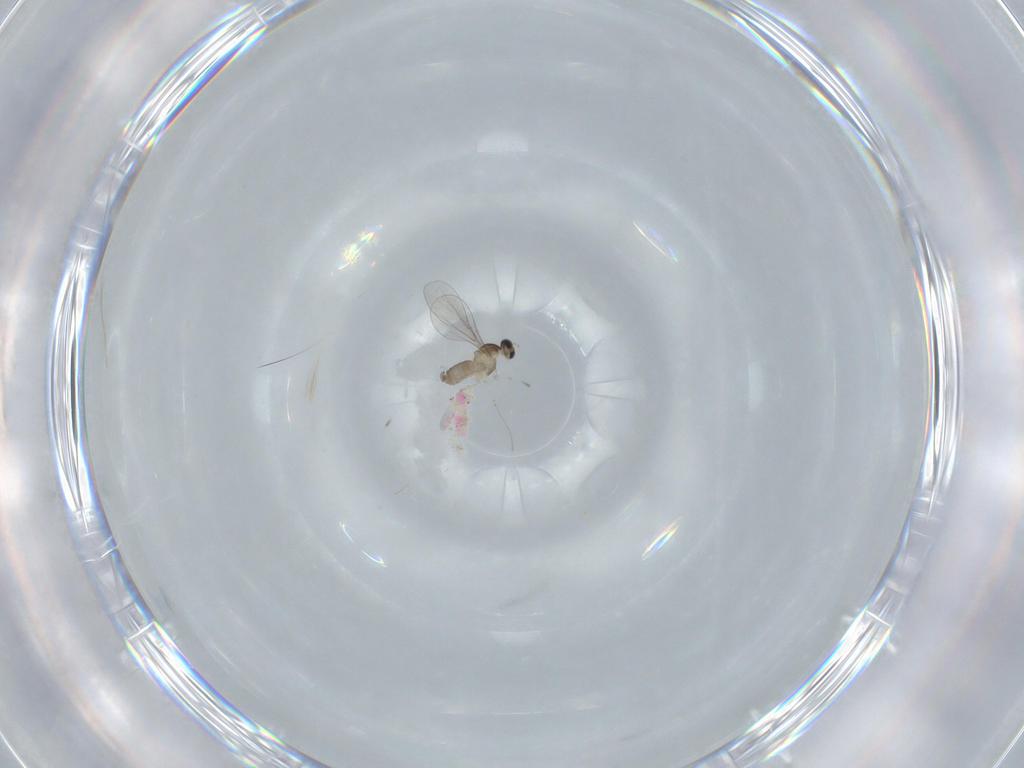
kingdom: Animalia
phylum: Arthropoda
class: Insecta
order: Diptera
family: Cecidomyiidae
